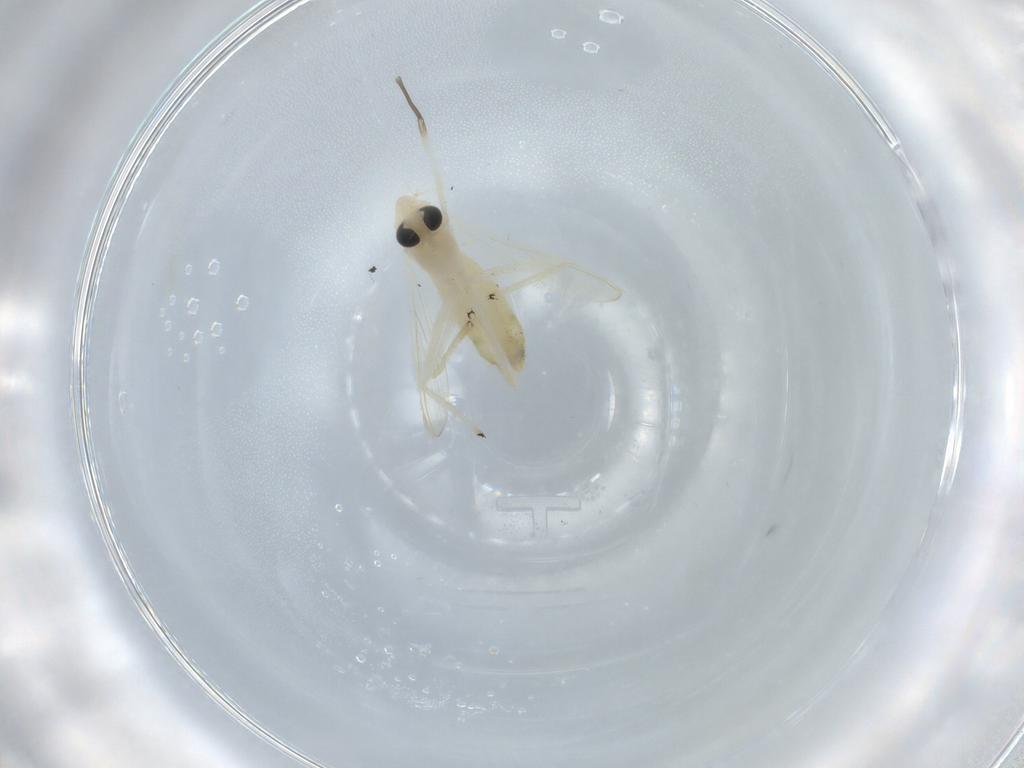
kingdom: Animalia
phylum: Arthropoda
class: Insecta
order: Diptera
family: Chironomidae
